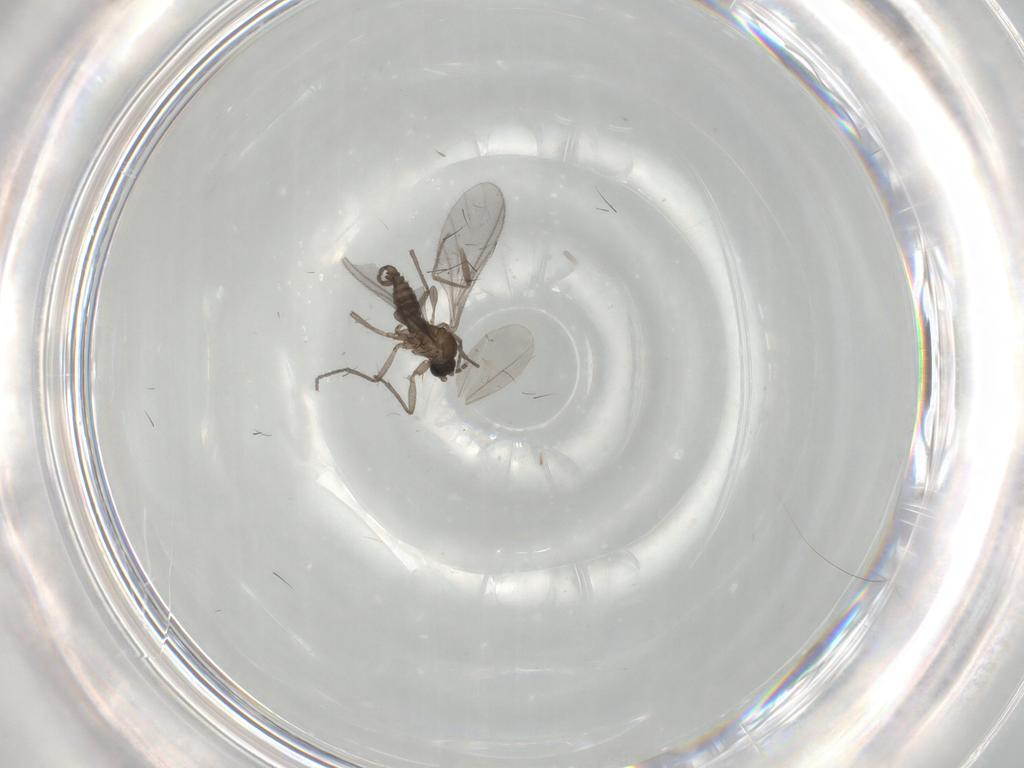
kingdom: Animalia
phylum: Arthropoda
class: Insecta
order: Diptera
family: Sciaridae
